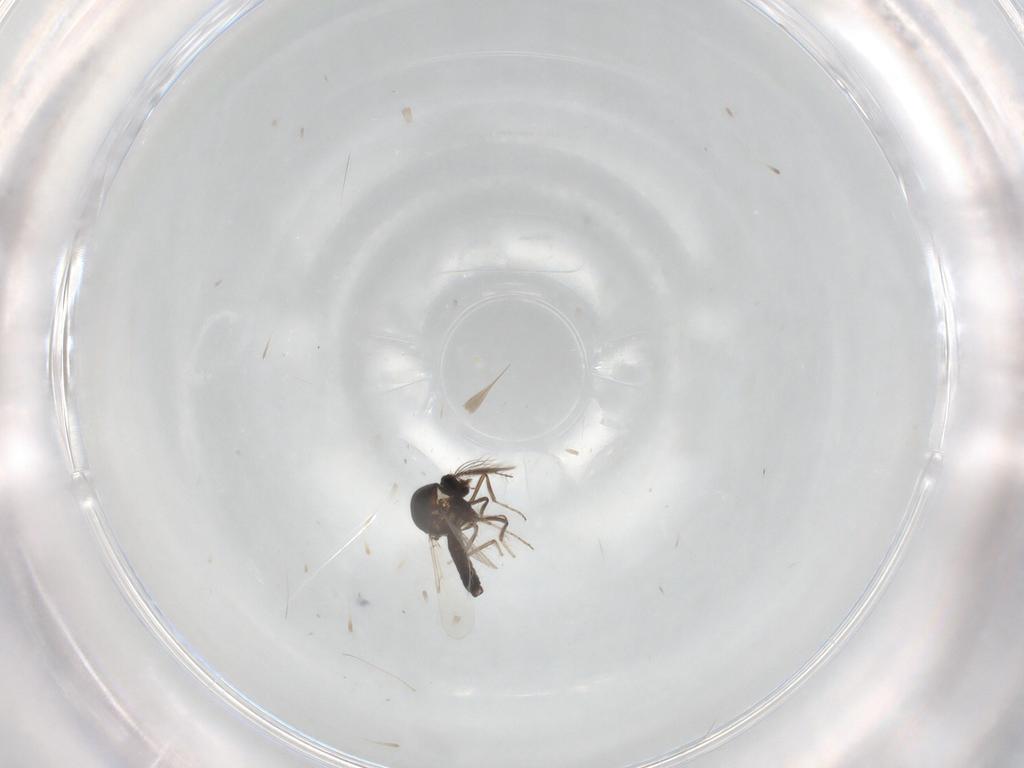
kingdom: Animalia
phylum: Arthropoda
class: Insecta
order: Diptera
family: Ceratopogonidae
